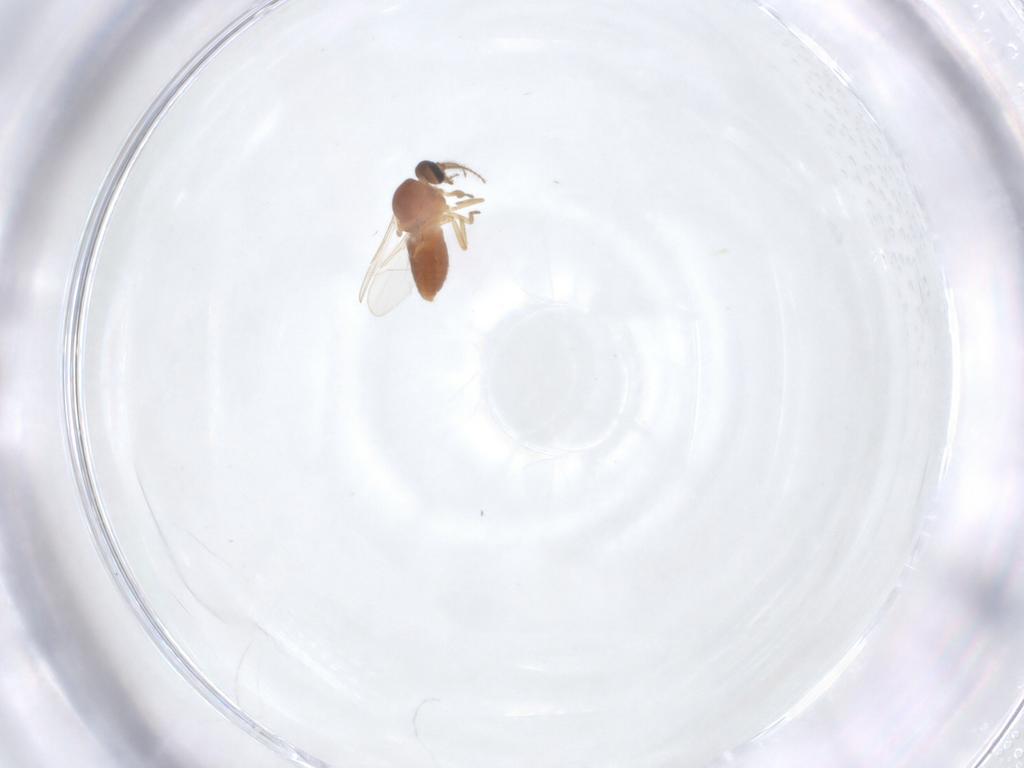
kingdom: Animalia
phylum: Arthropoda
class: Insecta
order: Diptera
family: Ceratopogonidae
